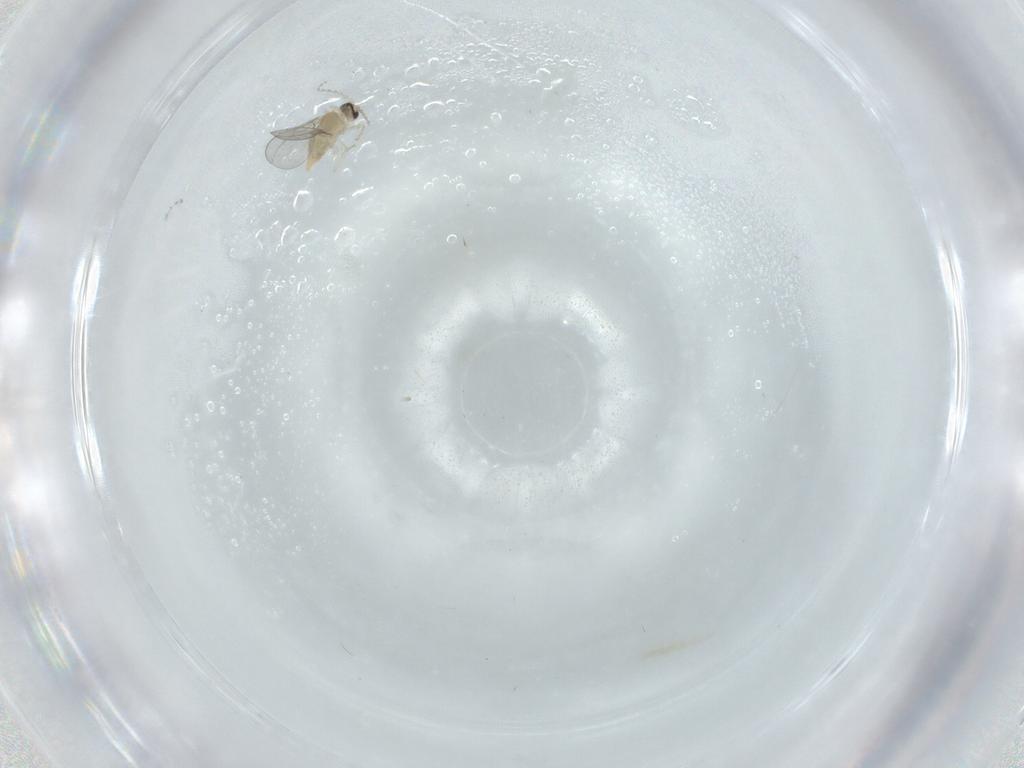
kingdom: Animalia
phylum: Arthropoda
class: Insecta
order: Diptera
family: Cecidomyiidae
